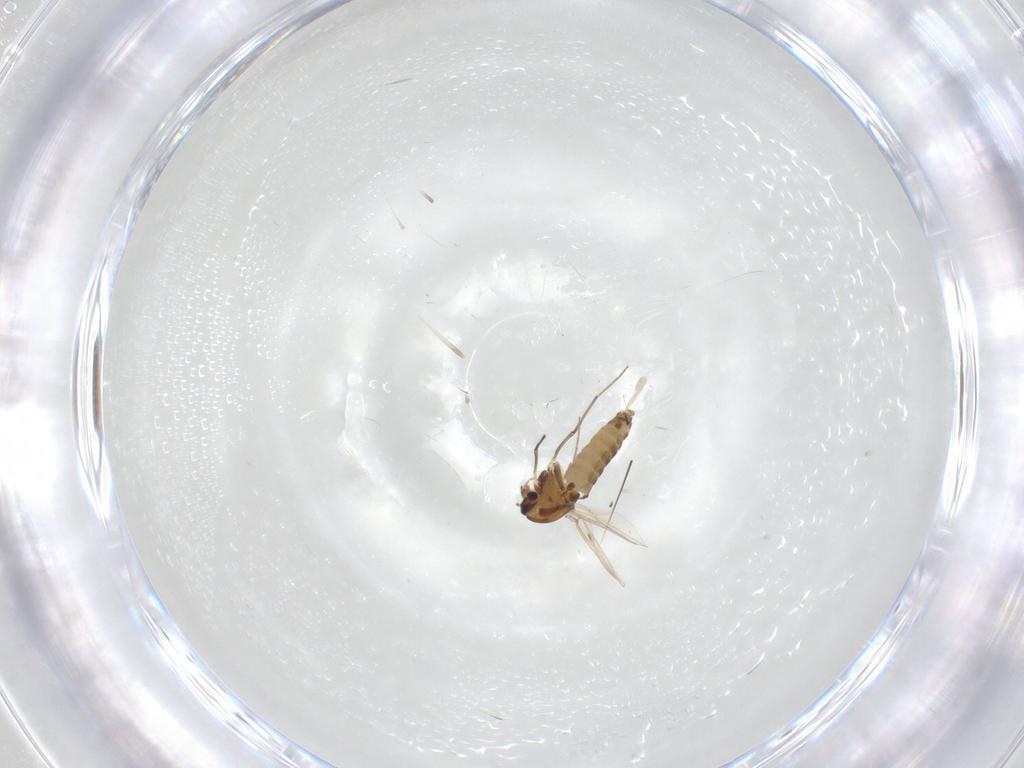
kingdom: Animalia
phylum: Arthropoda
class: Insecta
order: Diptera
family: Chironomidae
